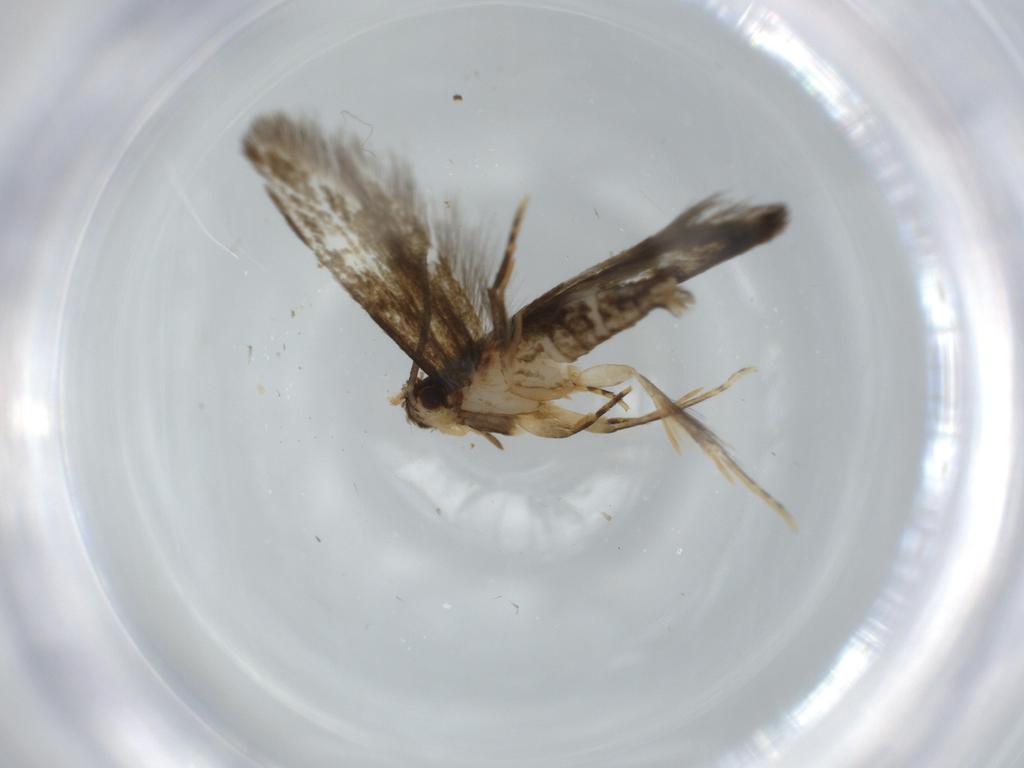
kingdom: Animalia
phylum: Arthropoda
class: Insecta
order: Lepidoptera
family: Tineidae
